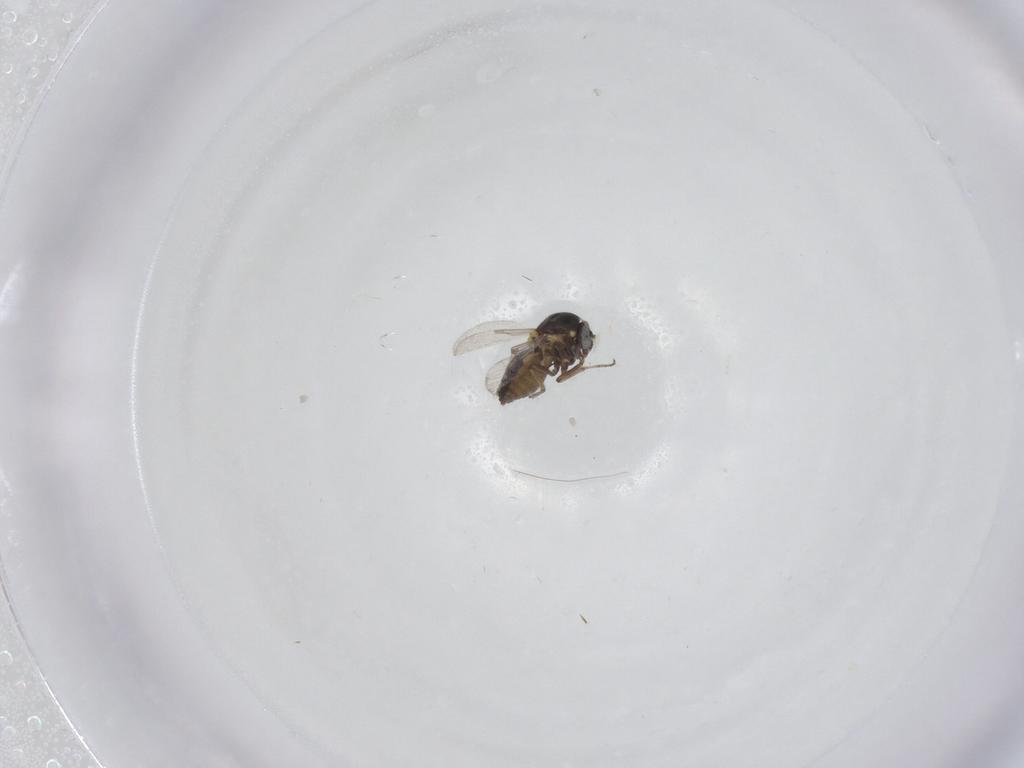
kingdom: Animalia
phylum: Arthropoda
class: Insecta
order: Diptera
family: Ceratopogonidae
